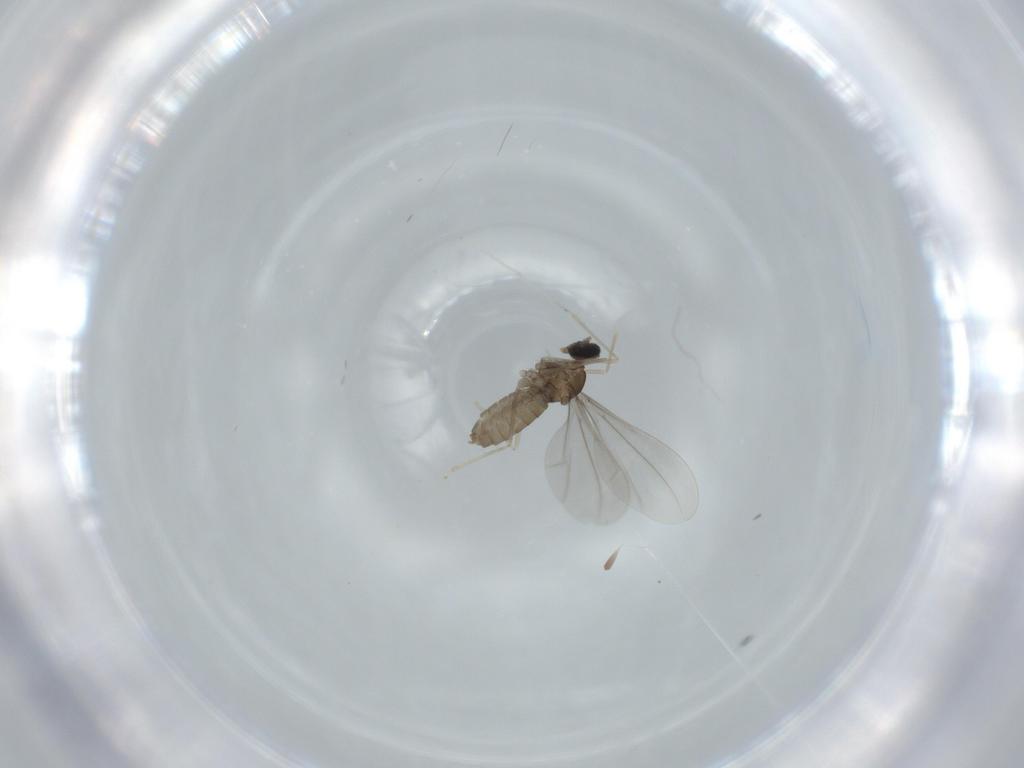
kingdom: Animalia
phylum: Arthropoda
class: Insecta
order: Diptera
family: Cecidomyiidae
